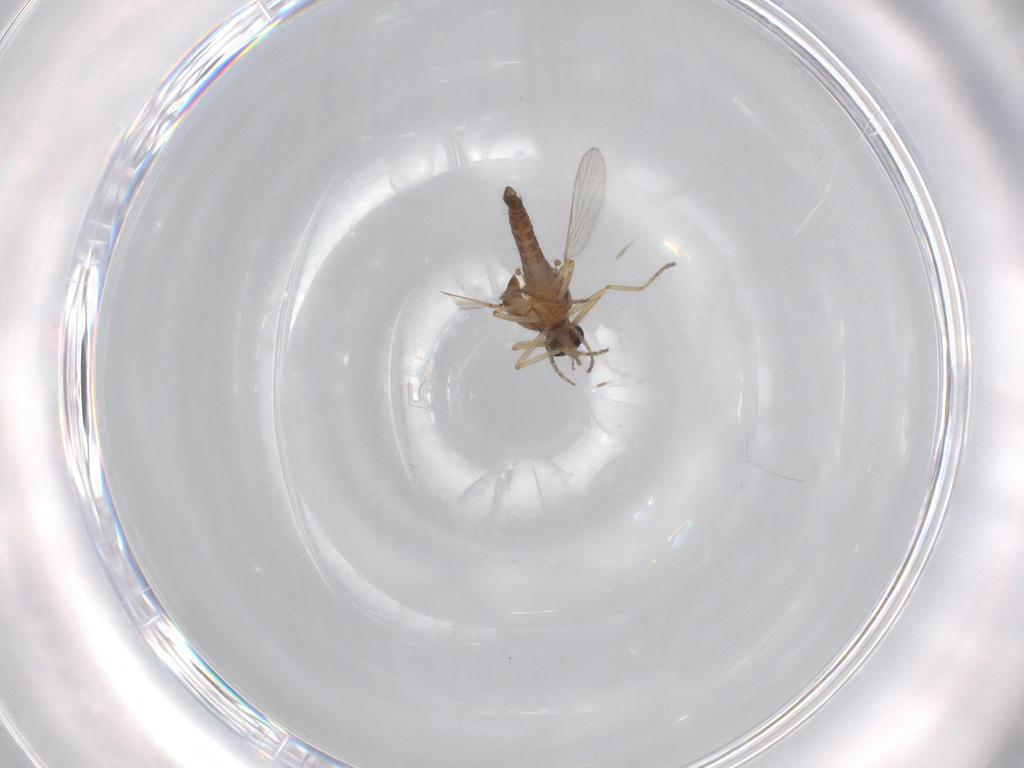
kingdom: Animalia
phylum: Arthropoda
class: Insecta
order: Diptera
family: Ceratopogonidae
